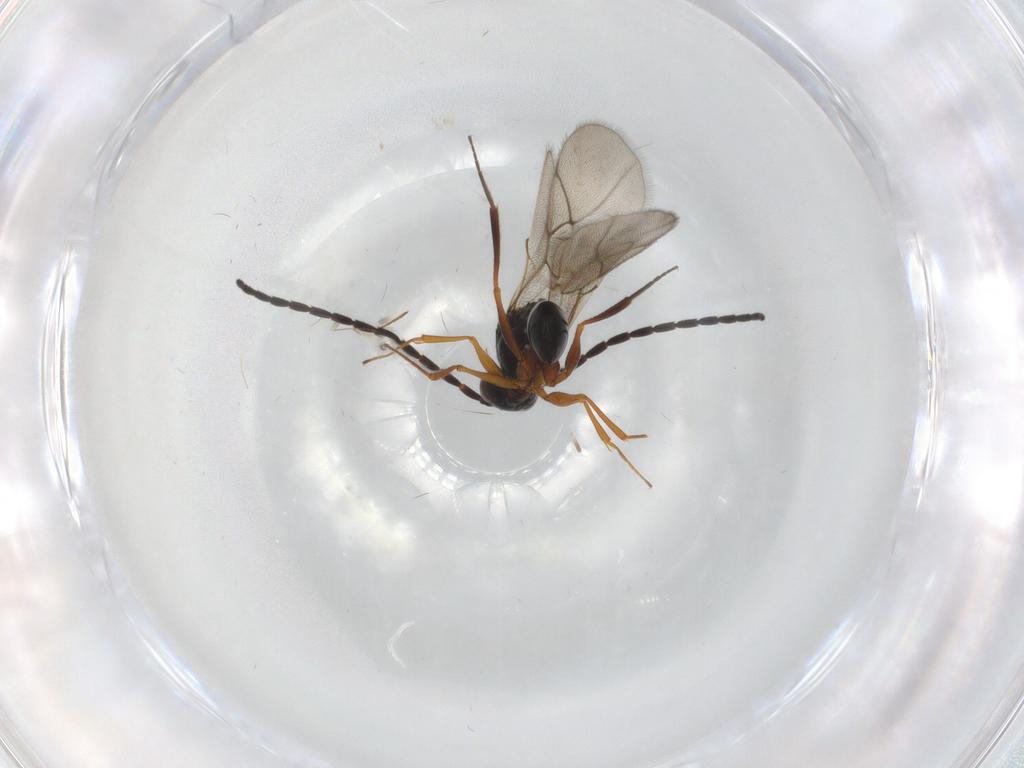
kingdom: Animalia
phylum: Arthropoda
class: Insecta
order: Hymenoptera
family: Figitidae
